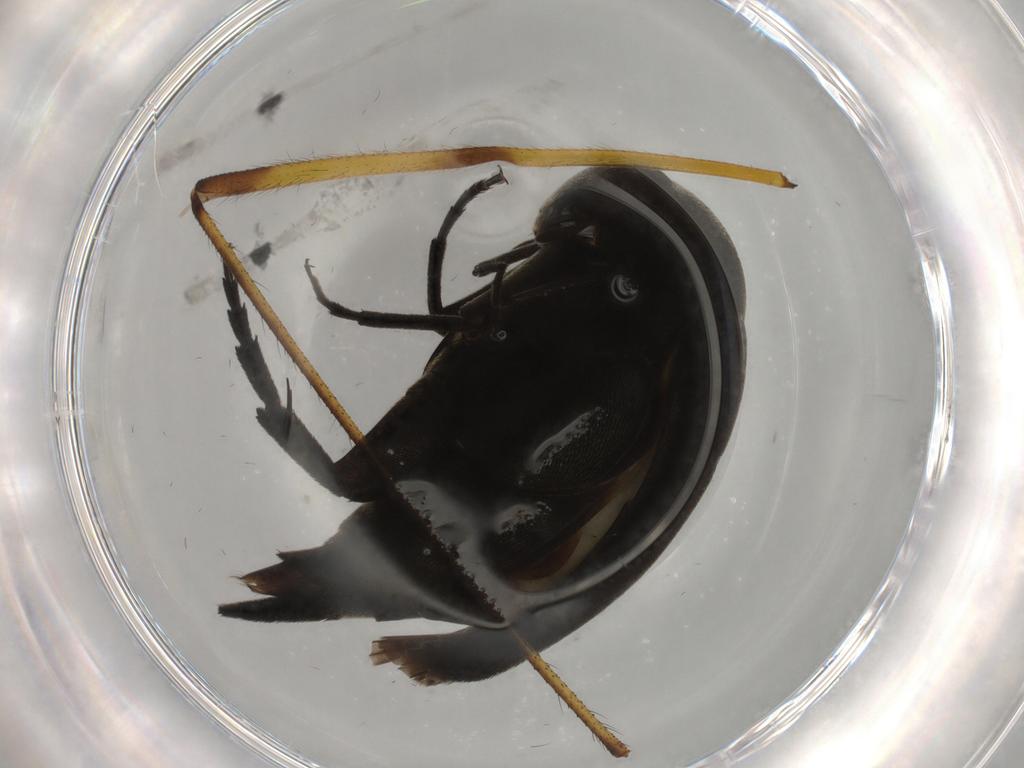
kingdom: Animalia
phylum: Arthropoda
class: Insecta
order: Coleoptera
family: Mordellidae
